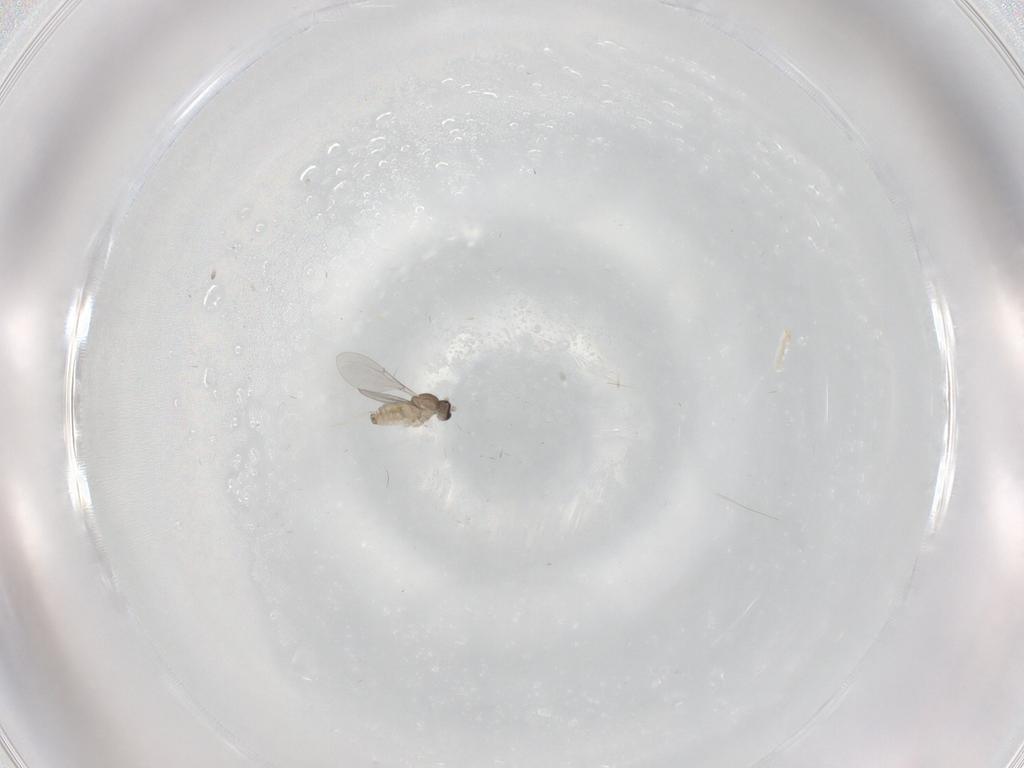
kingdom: Animalia
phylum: Arthropoda
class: Insecta
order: Diptera
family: Cecidomyiidae
